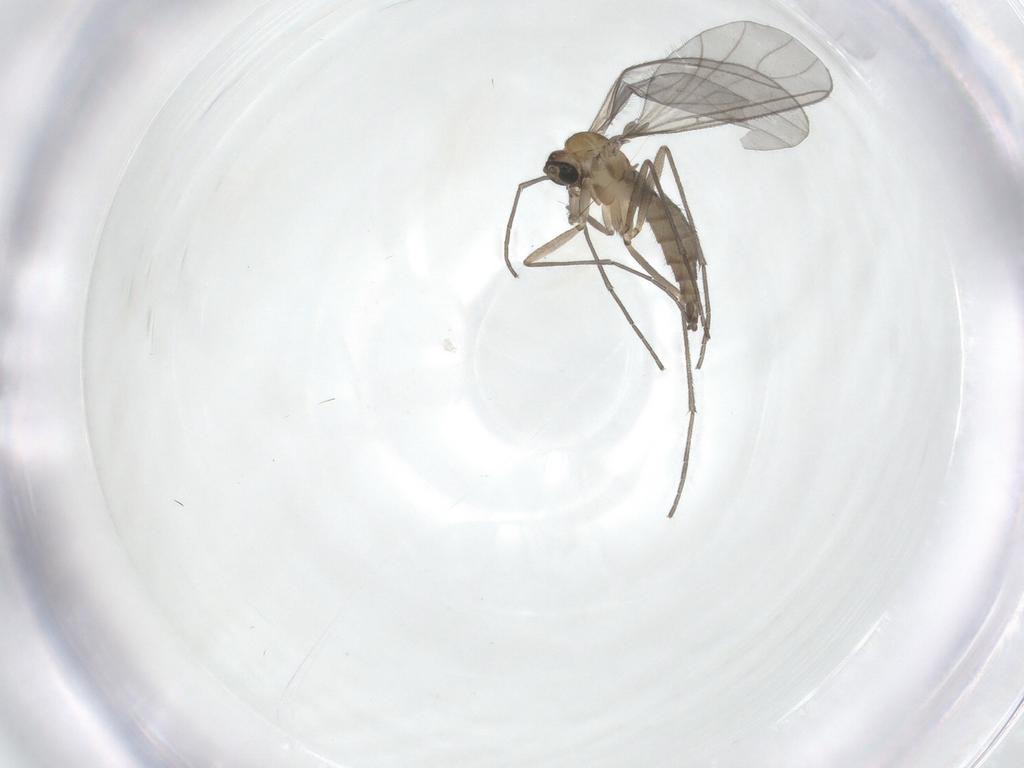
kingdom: Animalia
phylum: Arthropoda
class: Insecta
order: Diptera
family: Sciaridae
